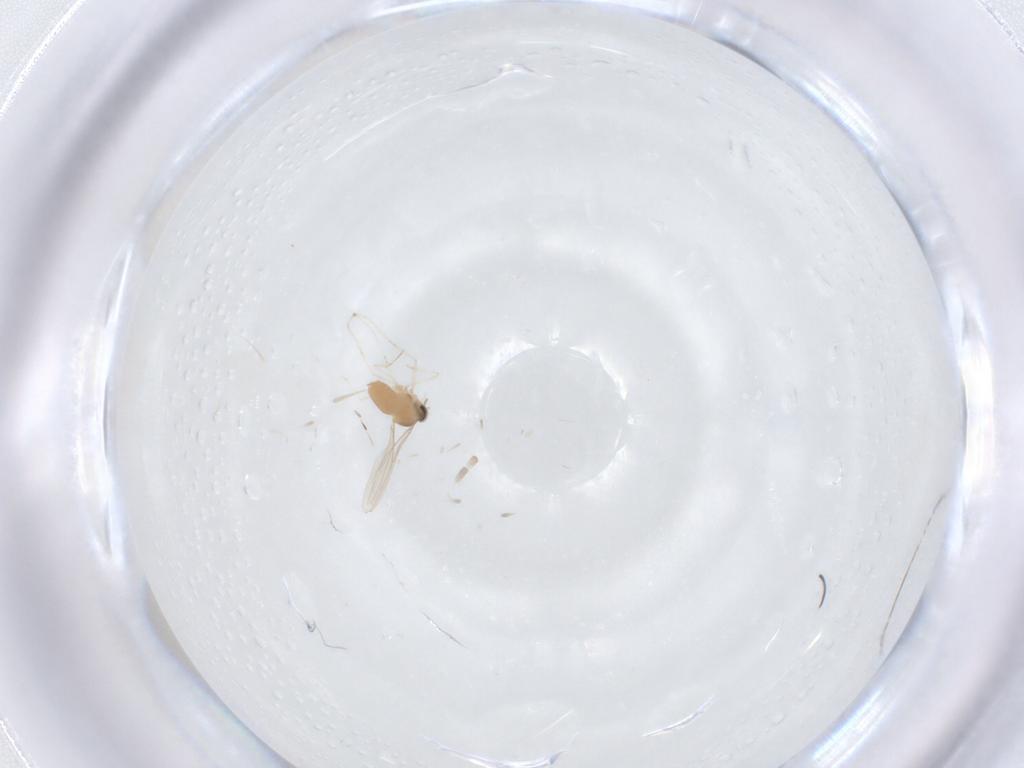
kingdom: Animalia
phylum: Arthropoda
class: Insecta
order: Diptera
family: Cecidomyiidae
